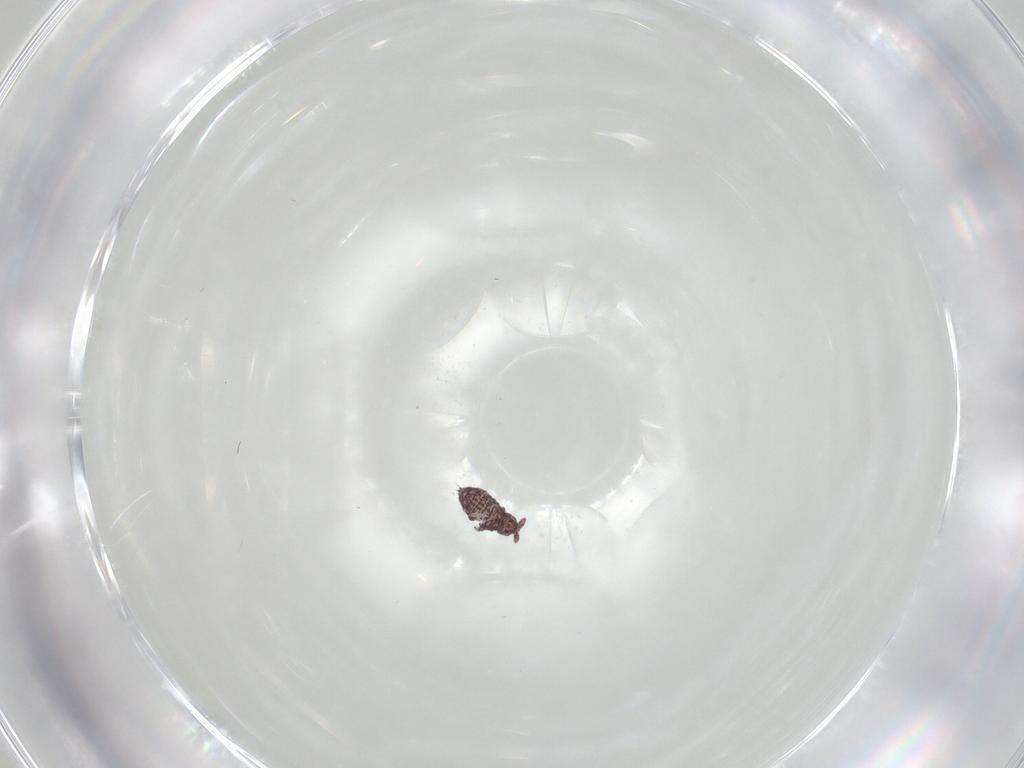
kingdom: Animalia
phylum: Arthropoda
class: Collembola
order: Poduromorpha
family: Hypogastruridae
